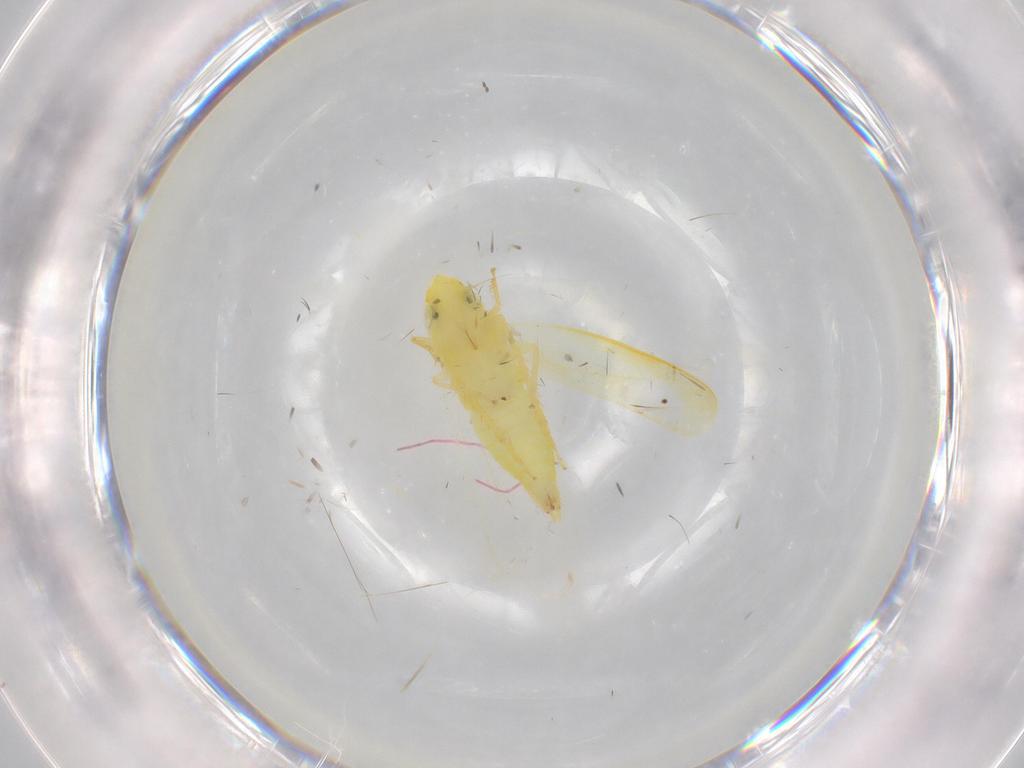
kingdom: Animalia
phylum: Arthropoda
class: Insecta
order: Hemiptera
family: Cicadellidae
